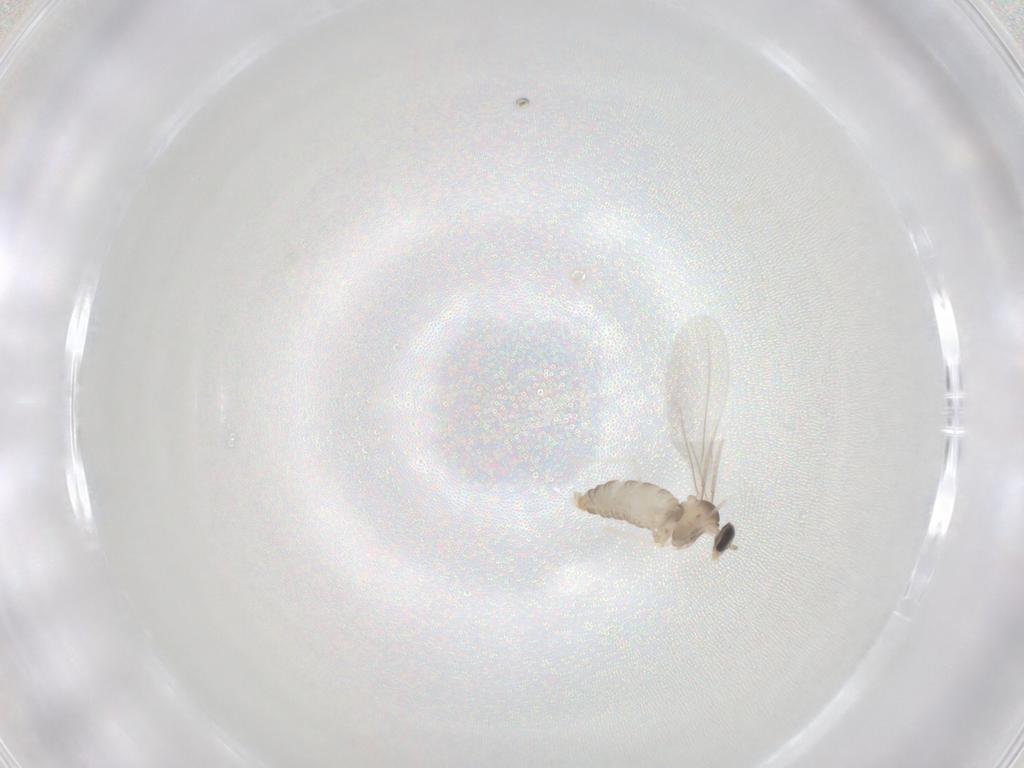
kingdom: Animalia
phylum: Arthropoda
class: Insecta
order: Diptera
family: Cecidomyiidae
